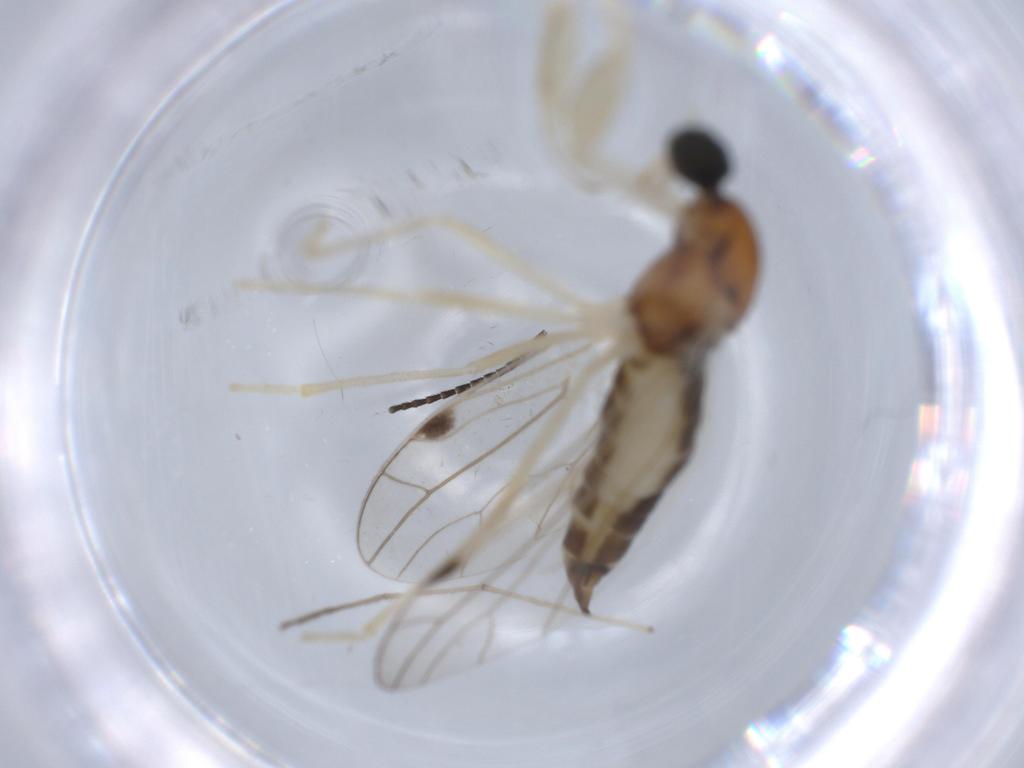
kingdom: Animalia
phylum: Arthropoda
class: Insecta
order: Diptera
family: Empididae
